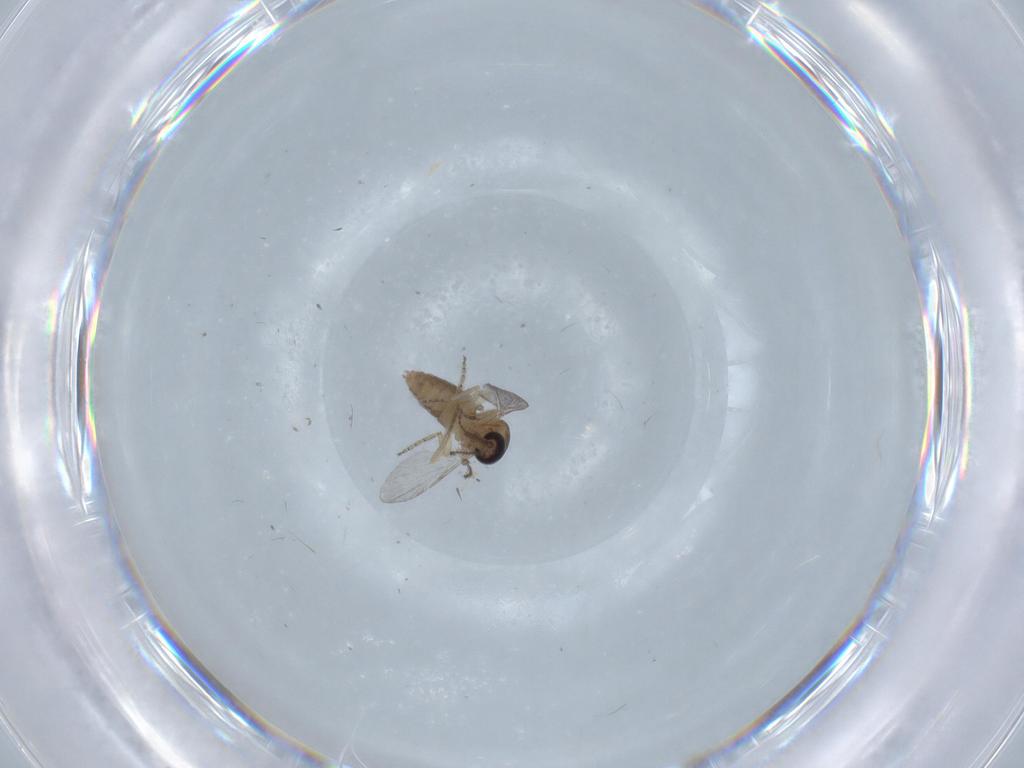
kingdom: Animalia
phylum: Arthropoda
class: Insecta
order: Diptera
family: Ceratopogonidae
